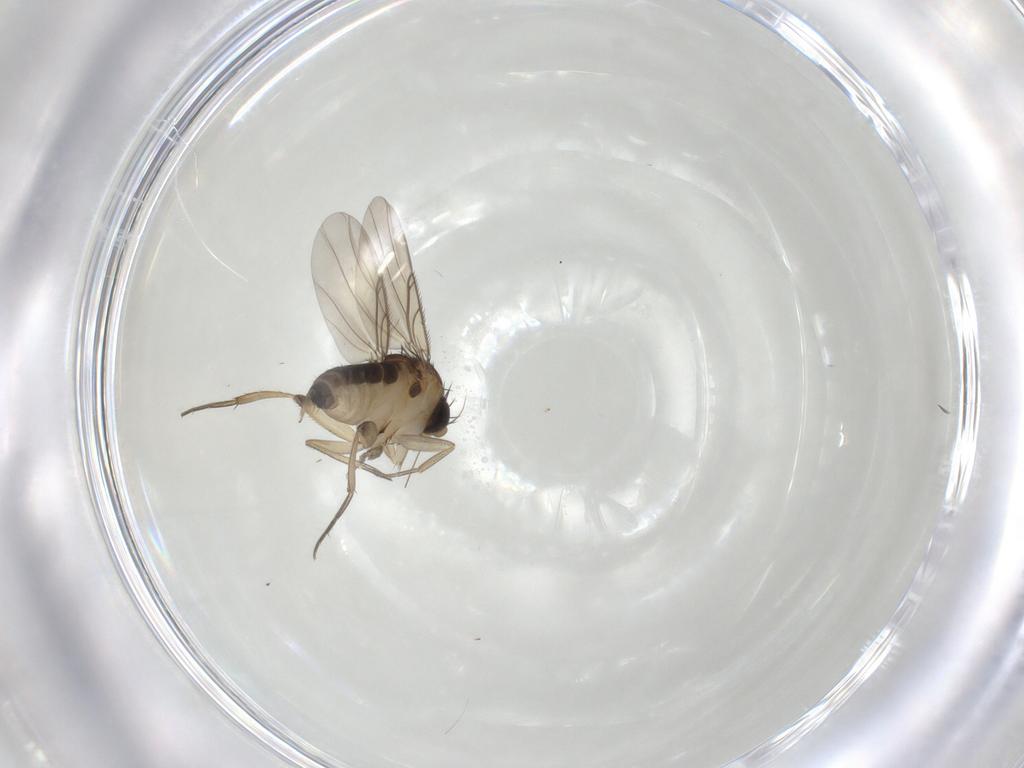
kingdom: Animalia
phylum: Arthropoda
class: Insecta
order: Diptera
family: Phoridae
